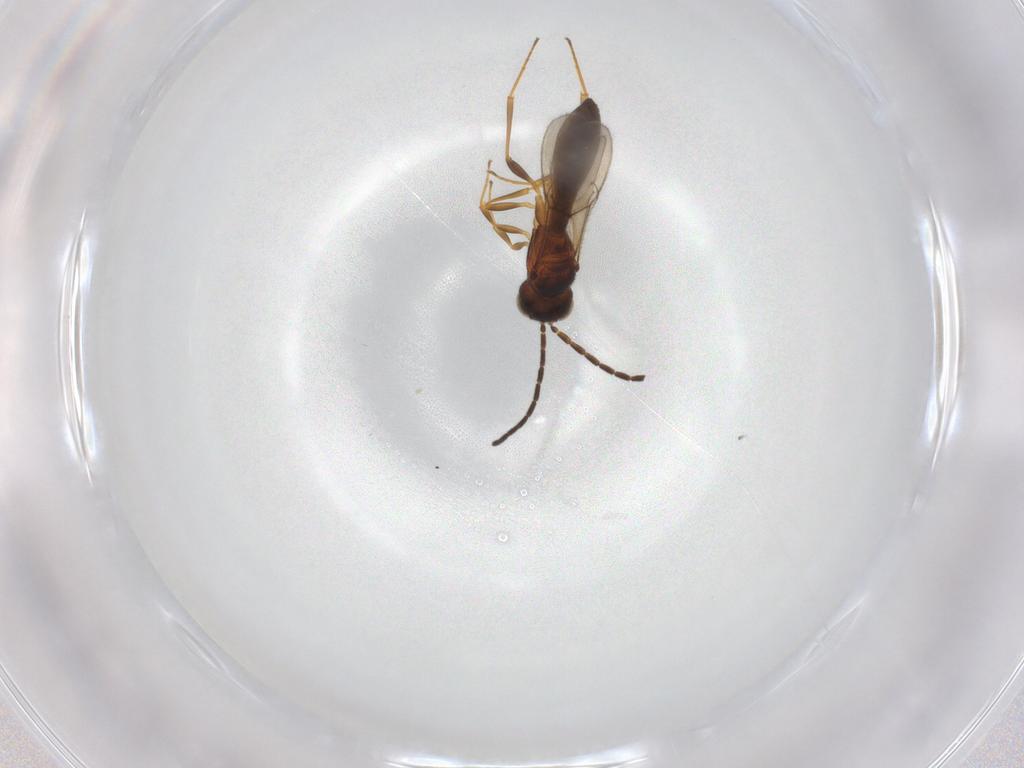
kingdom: Animalia
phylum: Arthropoda
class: Insecta
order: Hymenoptera
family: Scelionidae
